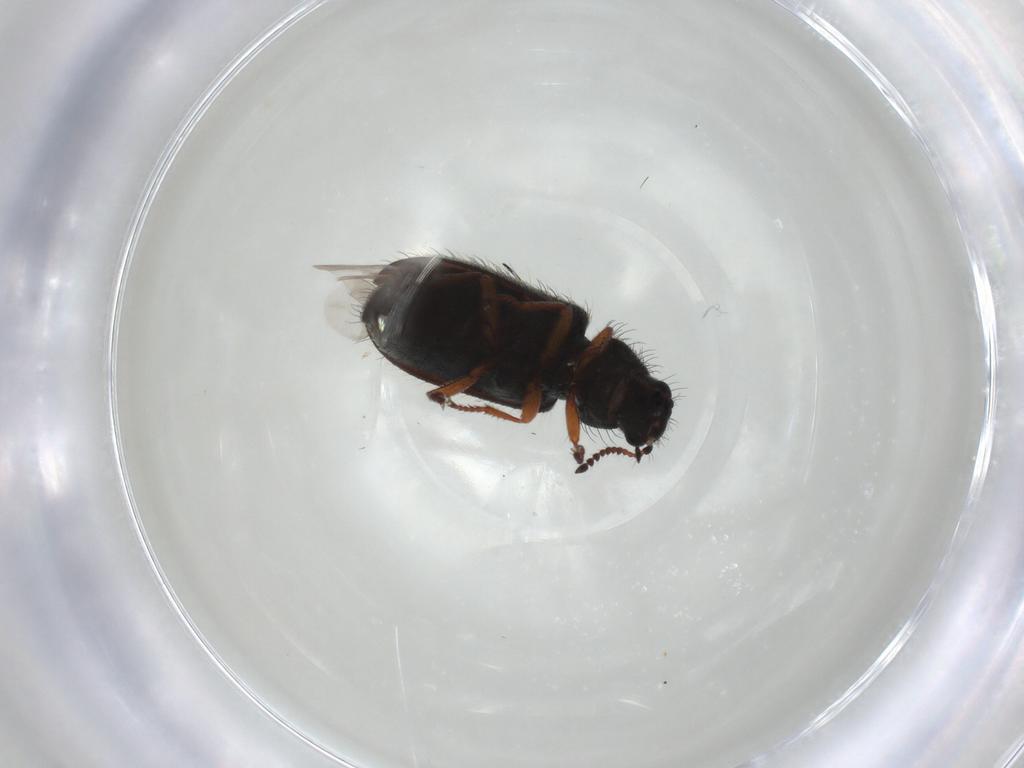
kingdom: Animalia
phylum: Arthropoda
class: Insecta
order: Coleoptera
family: Melyridae
